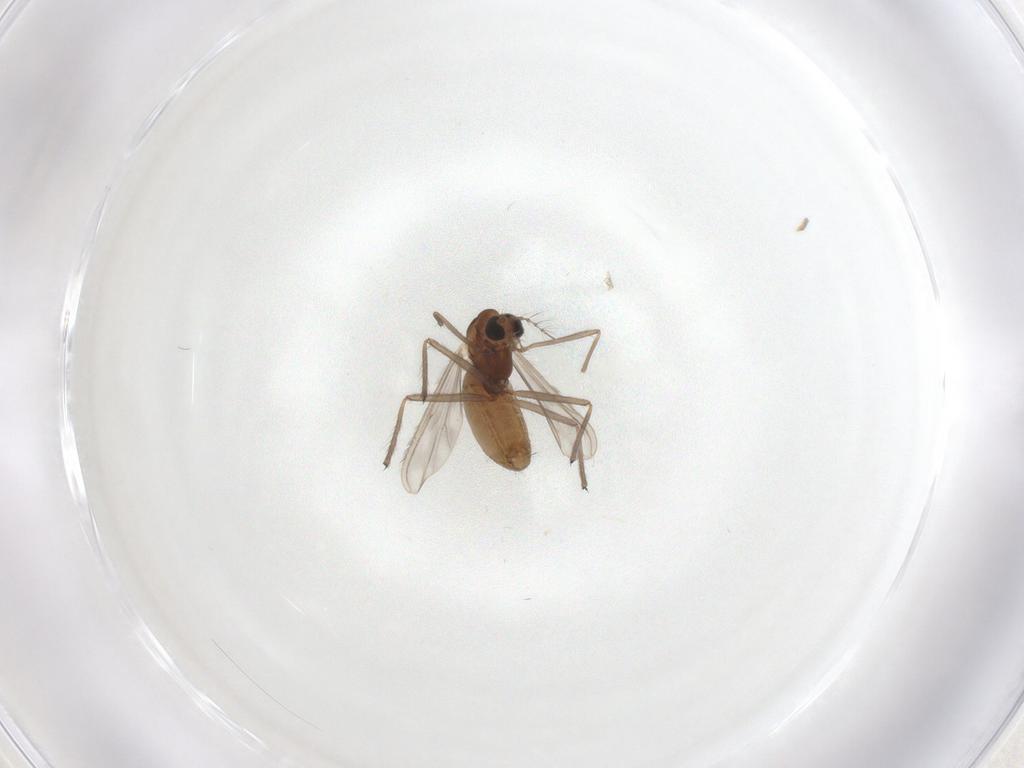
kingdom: Animalia
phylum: Arthropoda
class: Insecta
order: Diptera
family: Chironomidae
